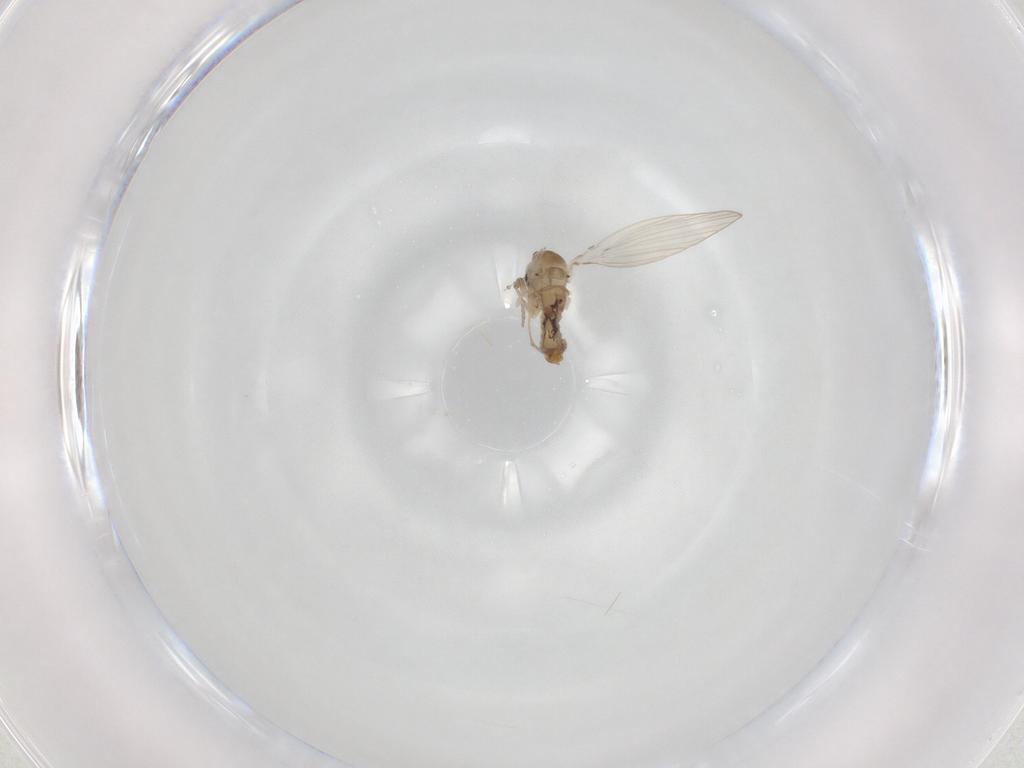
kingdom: Animalia
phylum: Arthropoda
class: Insecta
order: Diptera
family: Psychodidae
